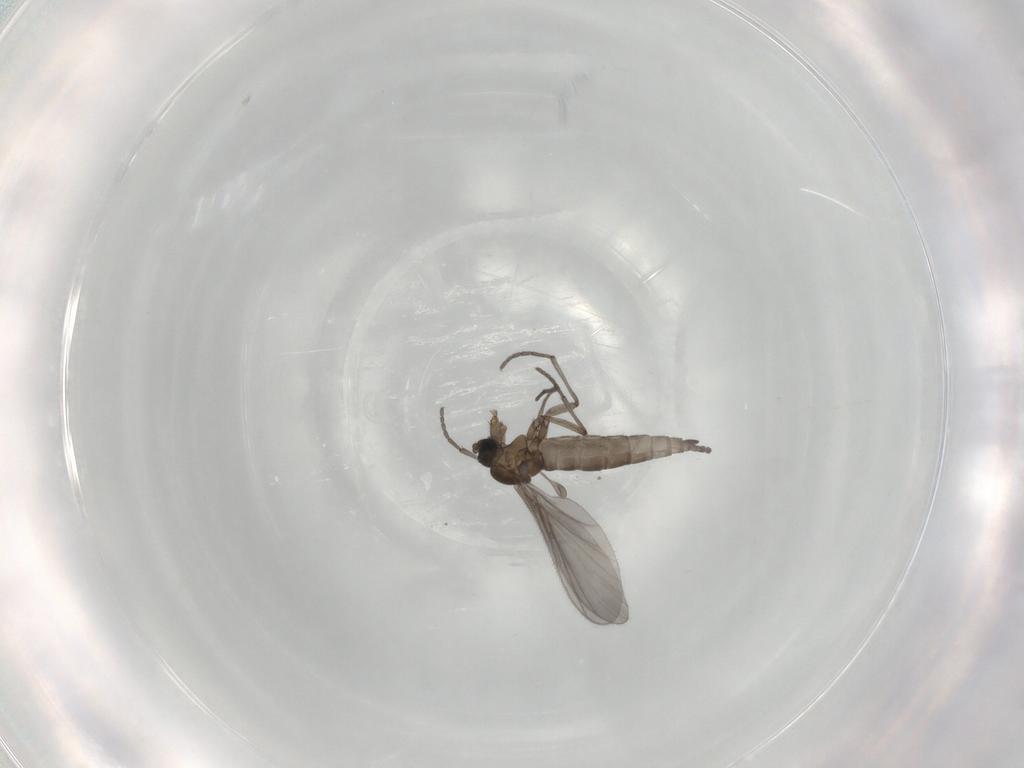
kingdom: Animalia
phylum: Arthropoda
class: Insecta
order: Diptera
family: Sciaridae
